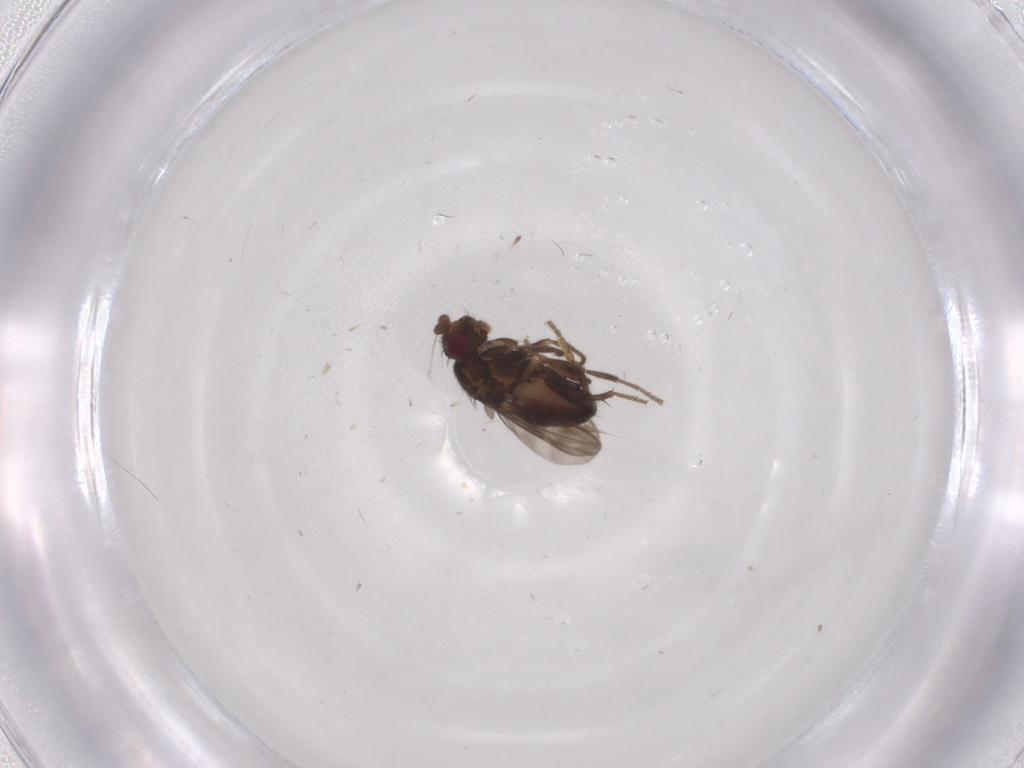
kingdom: Animalia
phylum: Arthropoda
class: Insecta
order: Diptera
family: Sphaeroceridae
